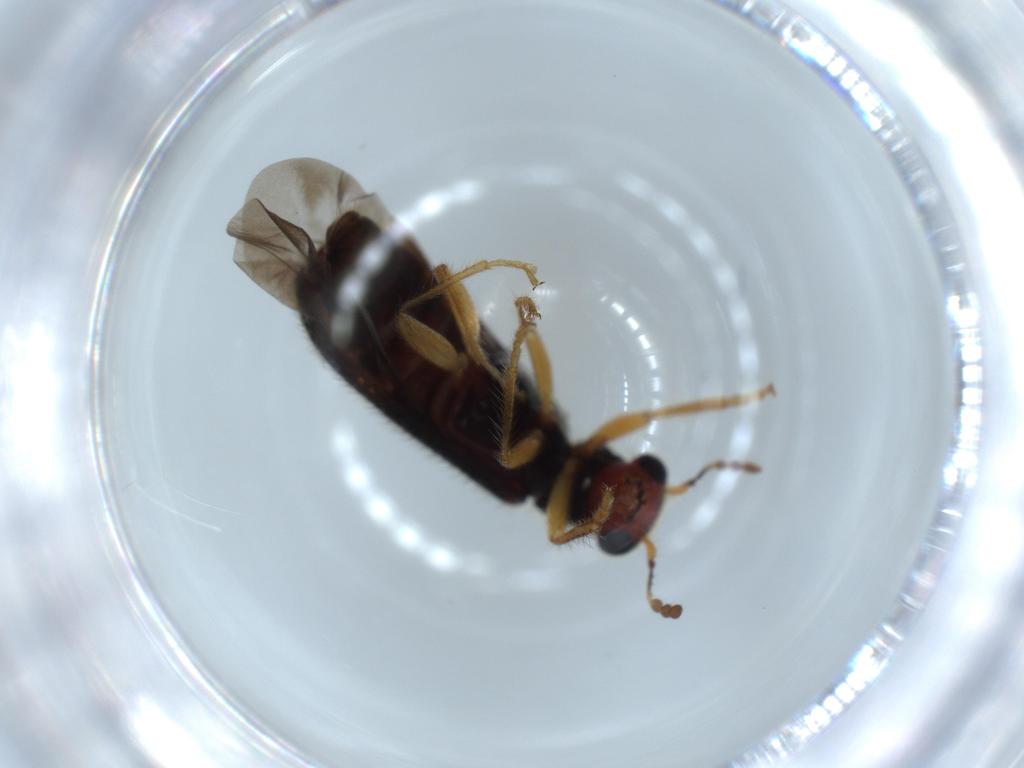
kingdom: Animalia
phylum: Arthropoda
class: Insecta
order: Coleoptera
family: Cleridae
